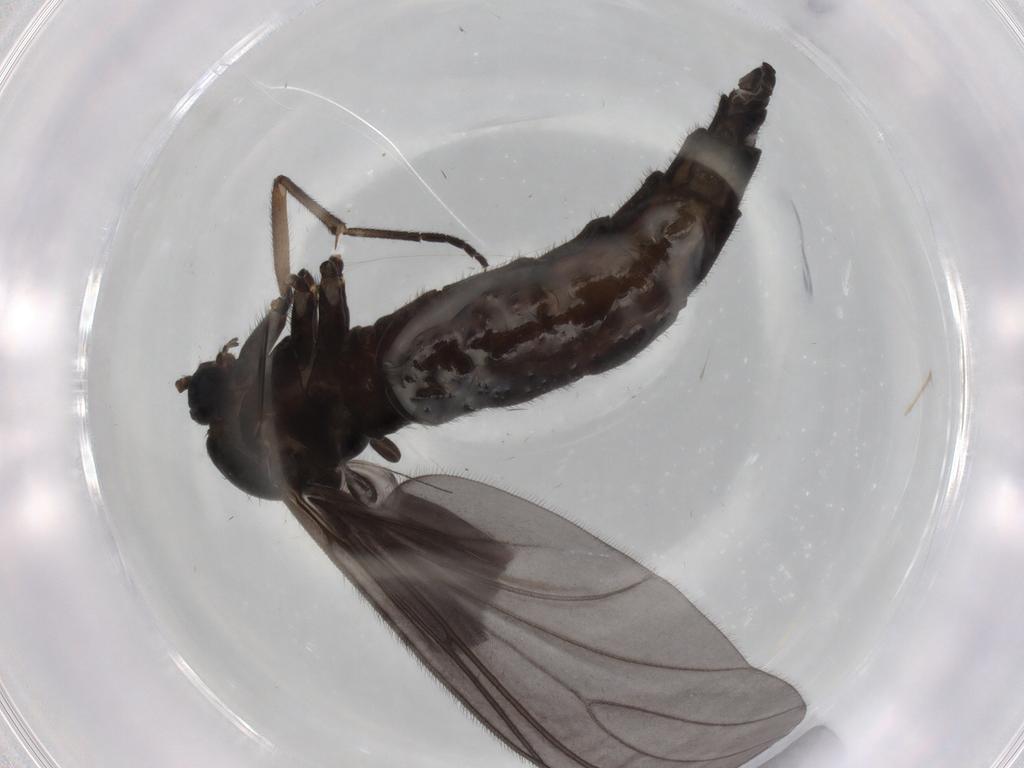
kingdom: Animalia
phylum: Arthropoda
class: Insecta
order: Diptera
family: Sciaridae
